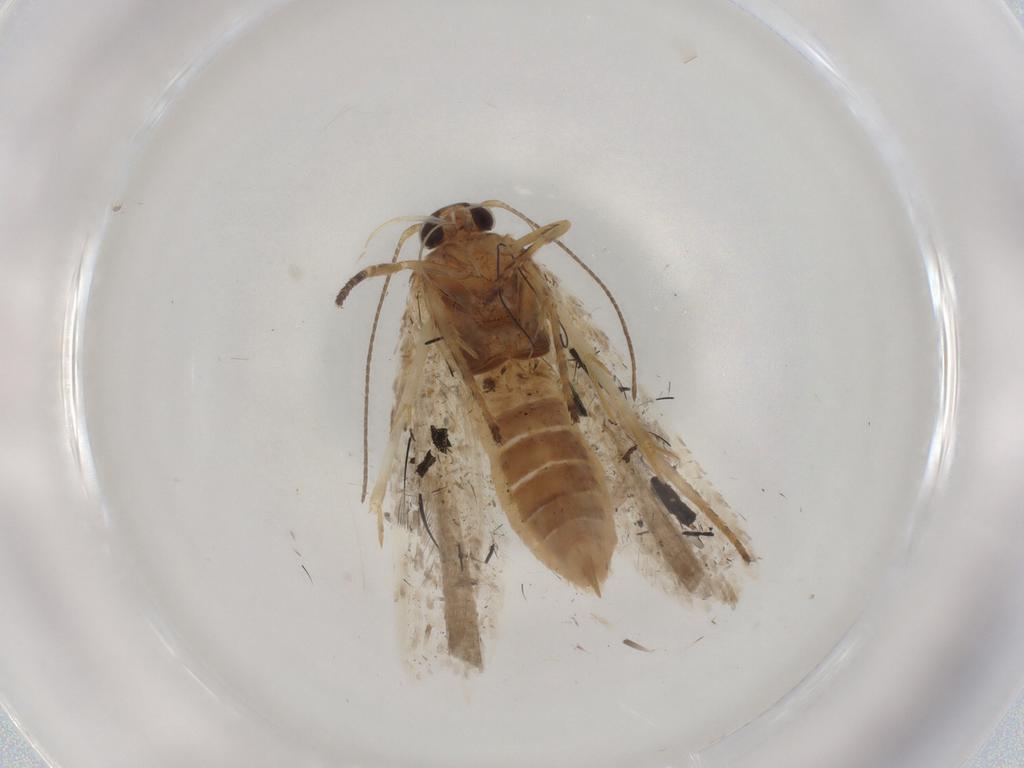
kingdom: Animalia
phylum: Arthropoda
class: Insecta
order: Lepidoptera
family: Gelechiidae
